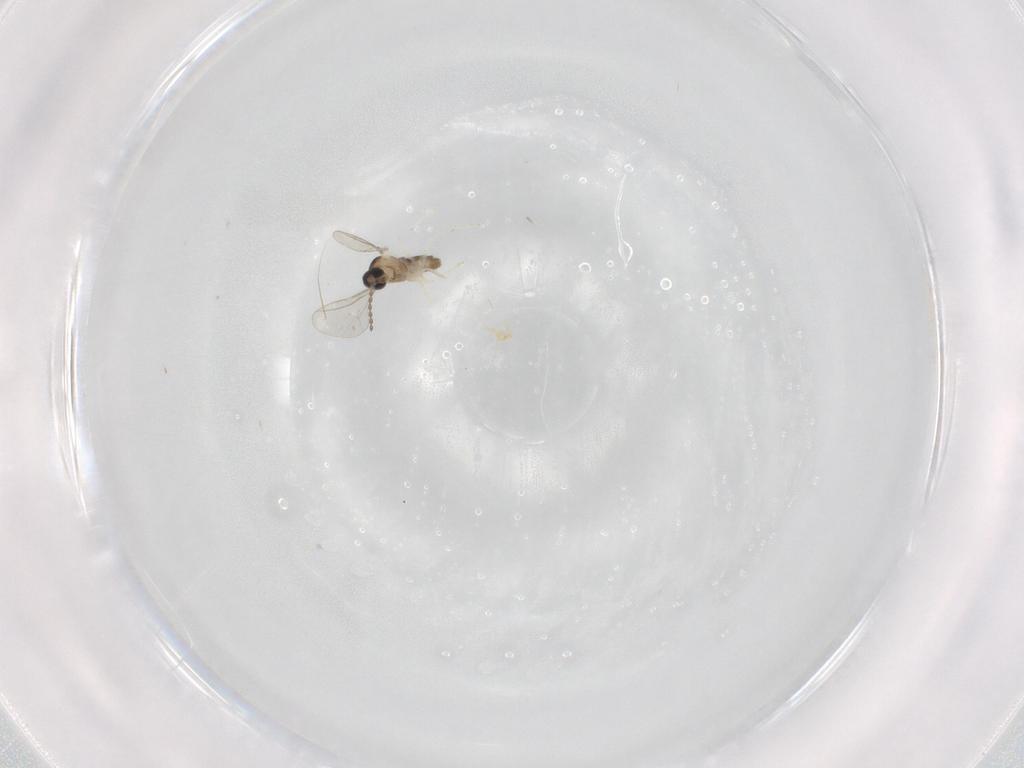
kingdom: Animalia
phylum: Arthropoda
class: Insecta
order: Diptera
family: Cecidomyiidae
